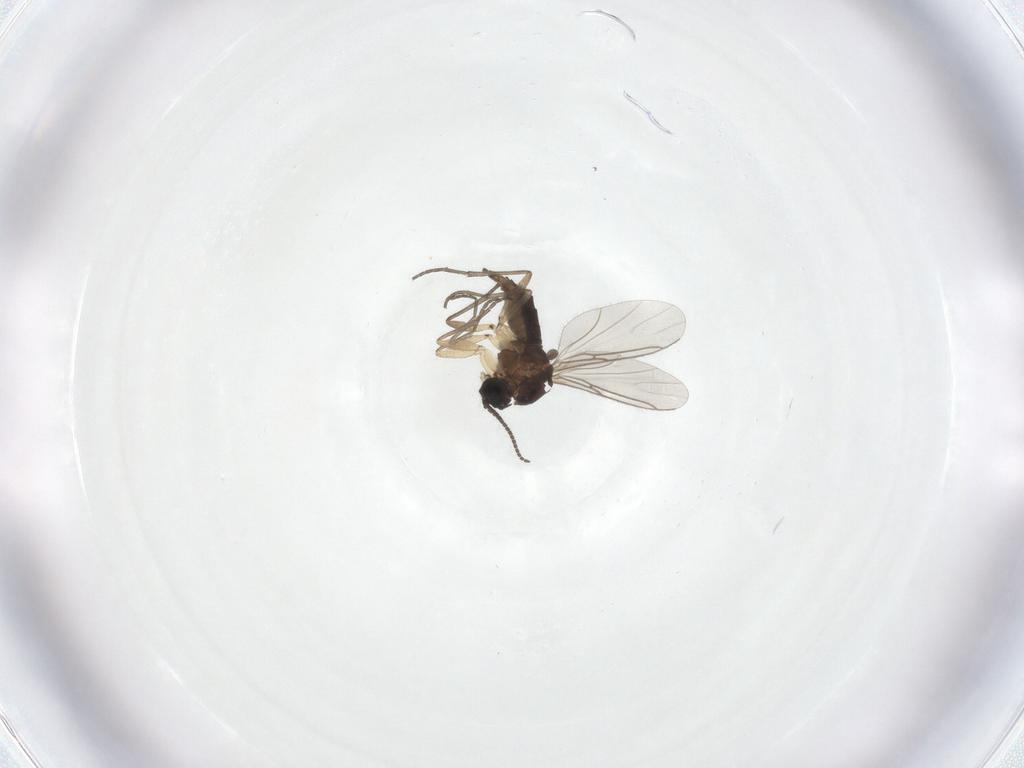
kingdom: Animalia
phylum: Arthropoda
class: Insecta
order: Diptera
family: Sciaridae
